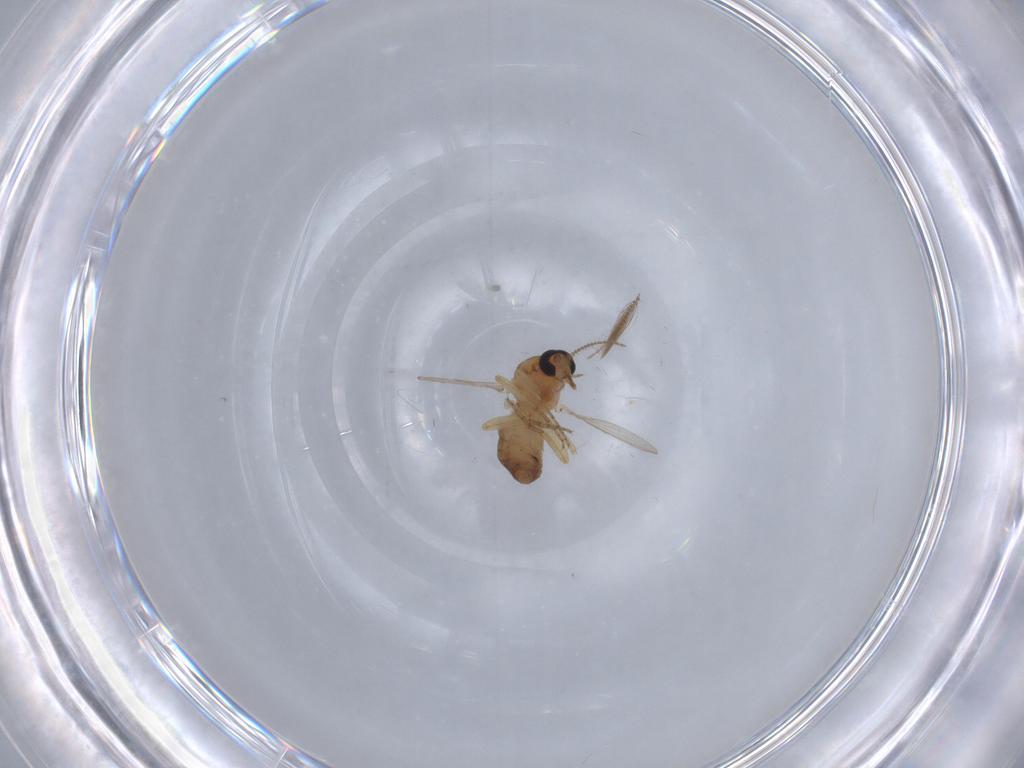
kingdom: Animalia
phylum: Arthropoda
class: Insecta
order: Diptera
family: Ceratopogonidae
